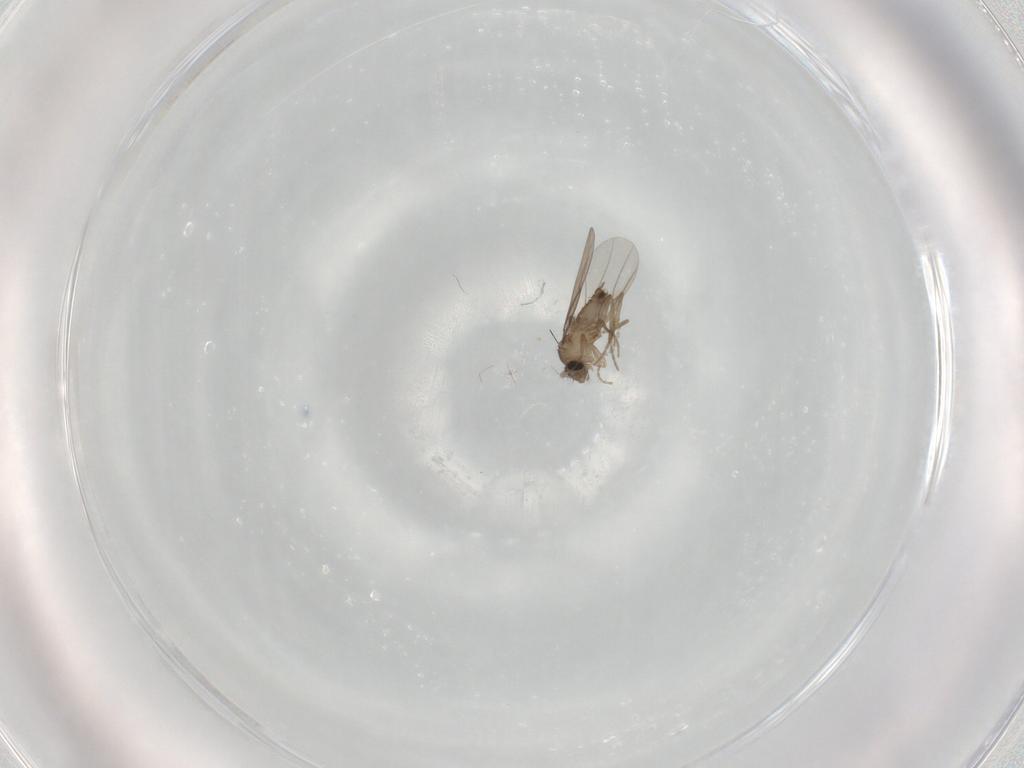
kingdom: Animalia
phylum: Arthropoda
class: Insecta
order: Diptera
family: Phoridae
